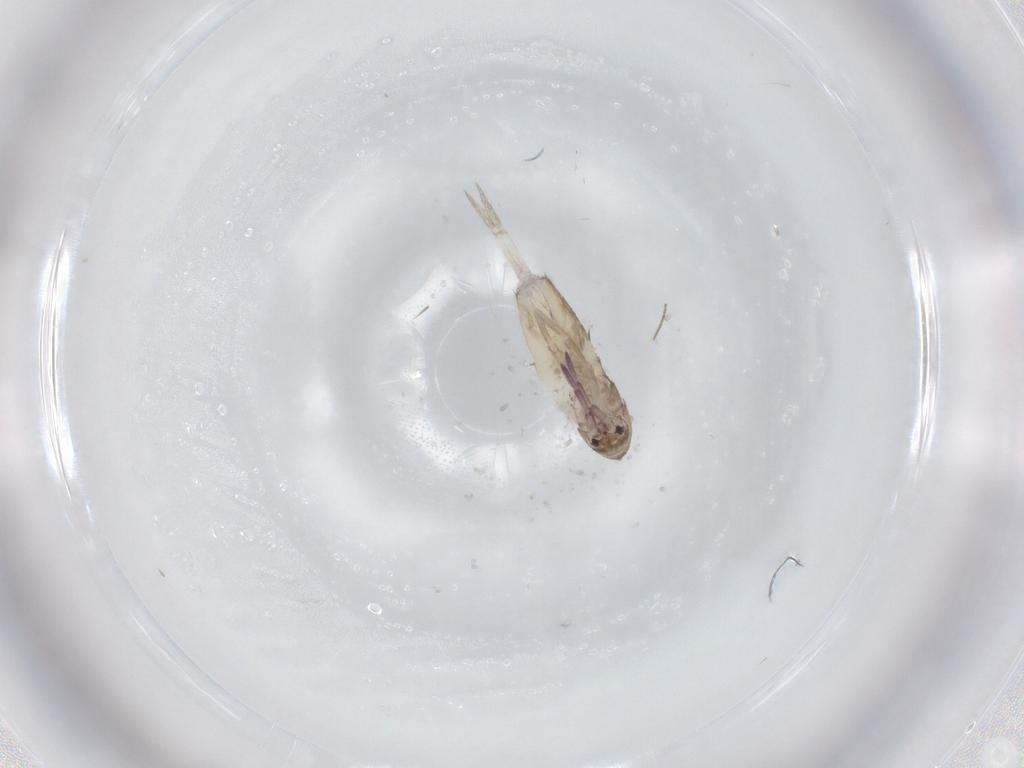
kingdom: Animalia
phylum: Arthropoda
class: Collembola
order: Entomobryomorpha
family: Entomobryidae
